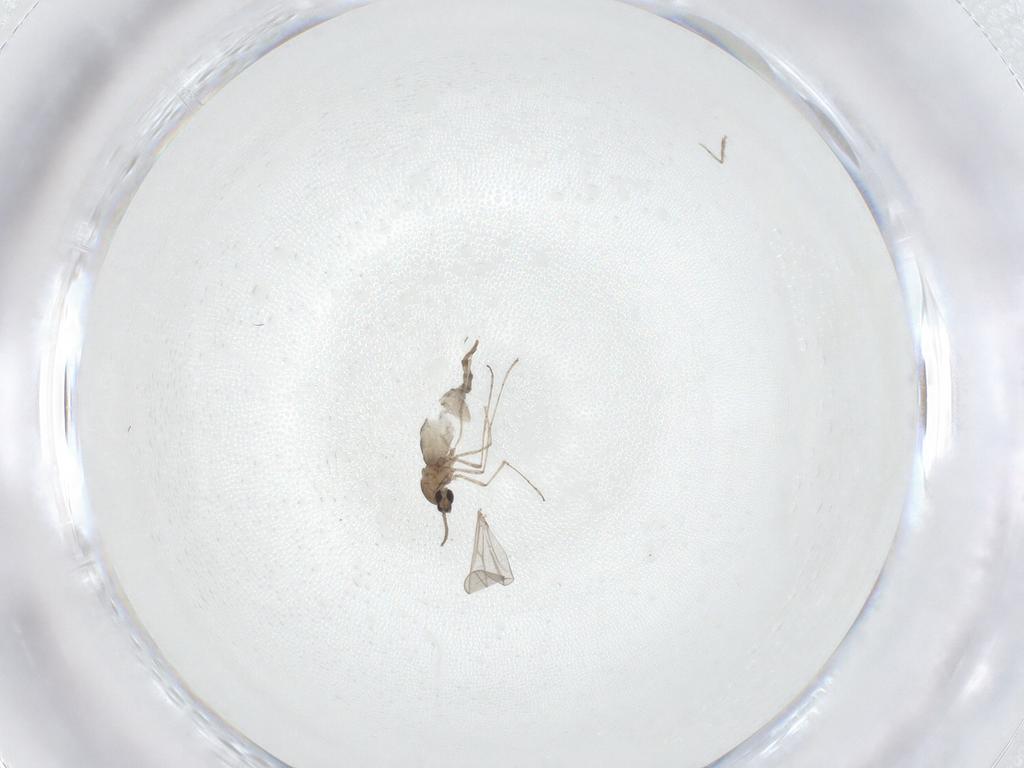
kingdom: Animalia
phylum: Arthropoda
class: Insecta
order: Diptera
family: Cecidomyiidae
